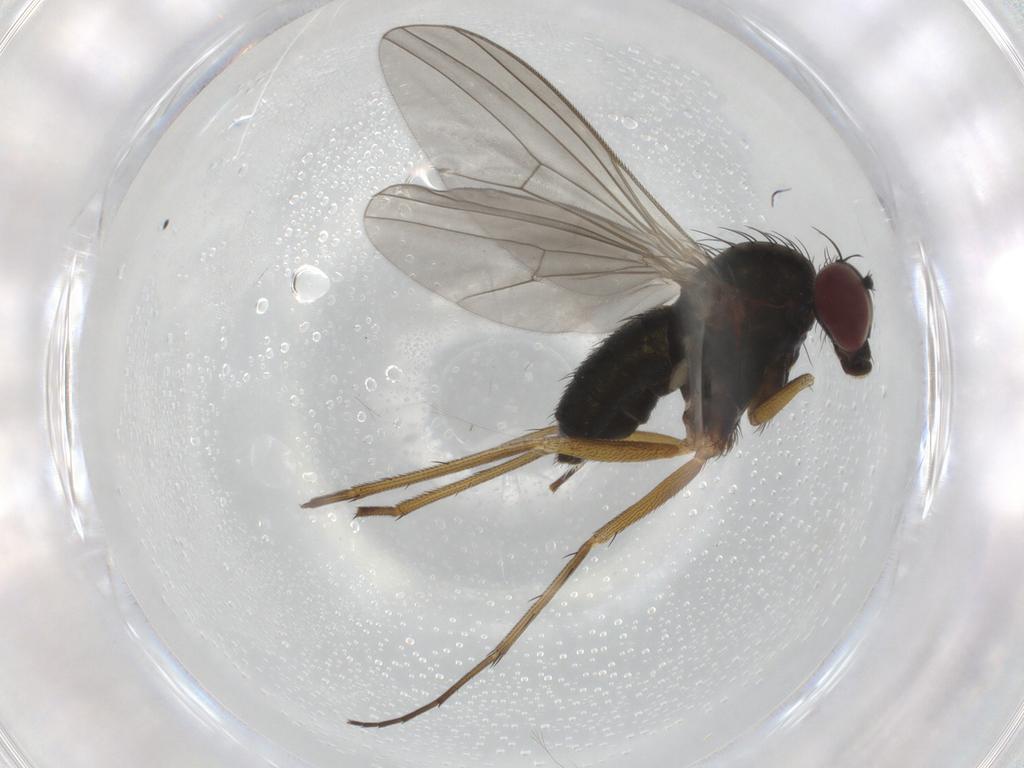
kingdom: Animalia
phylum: Arthropoda
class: Insecta
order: Diptera
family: Dolichopodidae
